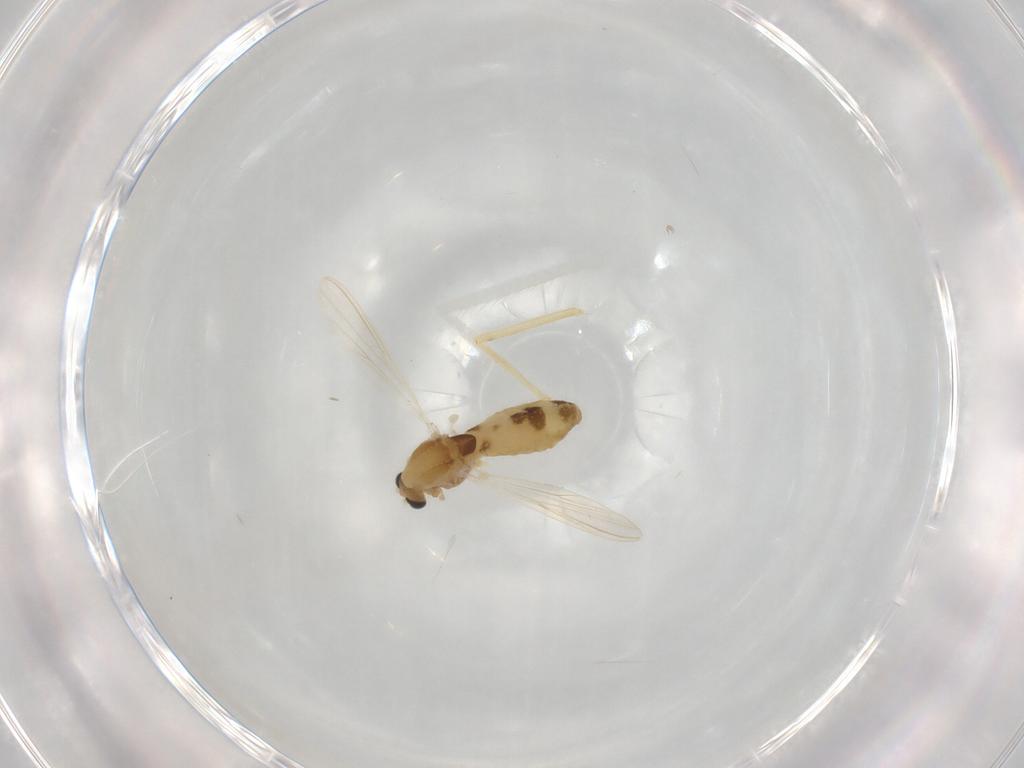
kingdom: Animalia
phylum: Arthropoda
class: Insecta
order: Diptera
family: Chironomidae
